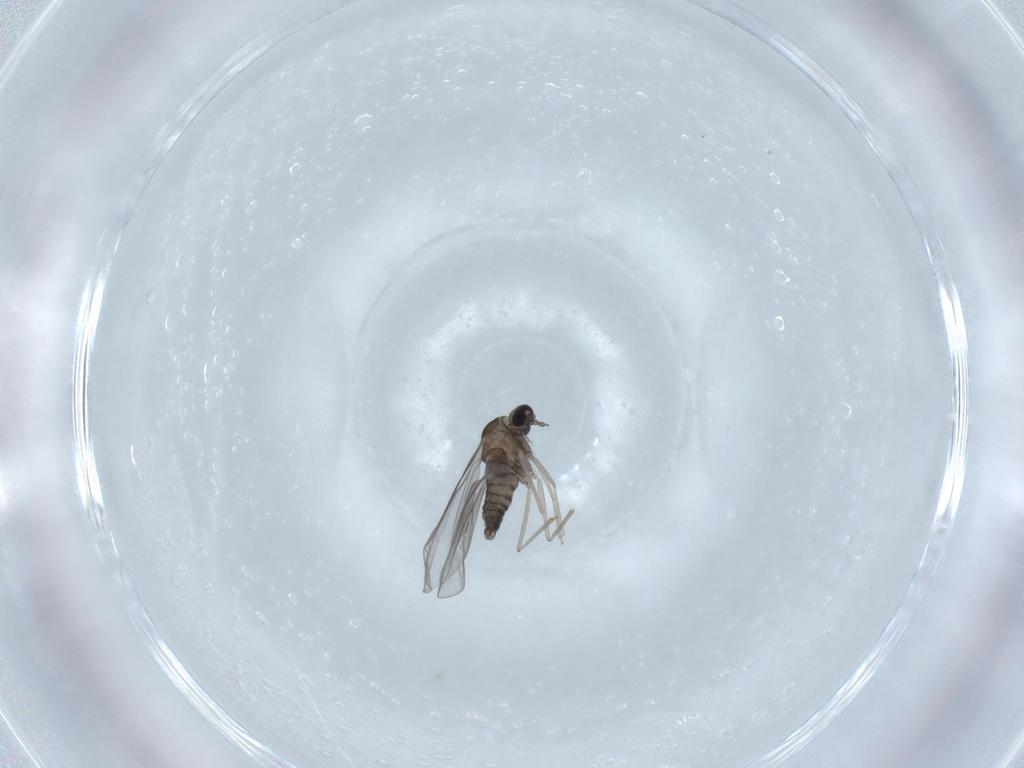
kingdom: Animalia
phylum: Arthropoda
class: Insecta
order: Diptera
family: Cecidomyiidae
